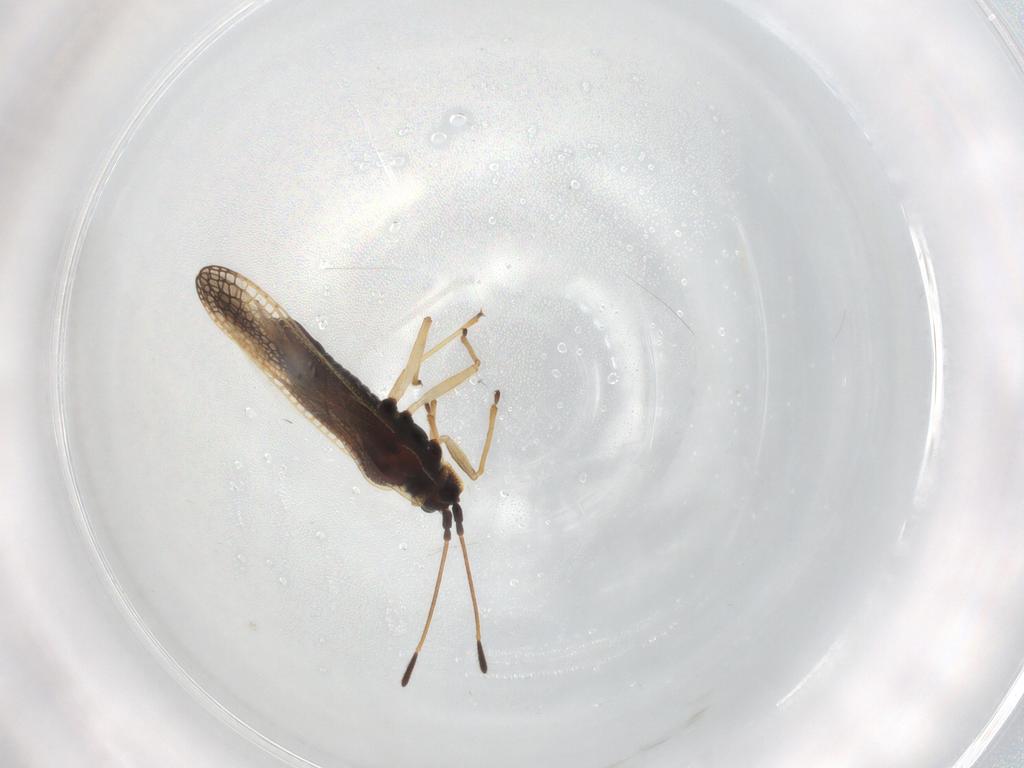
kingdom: Animalia
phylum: Arthropoda
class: Insecta
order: Hemiptera
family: Tingidae
